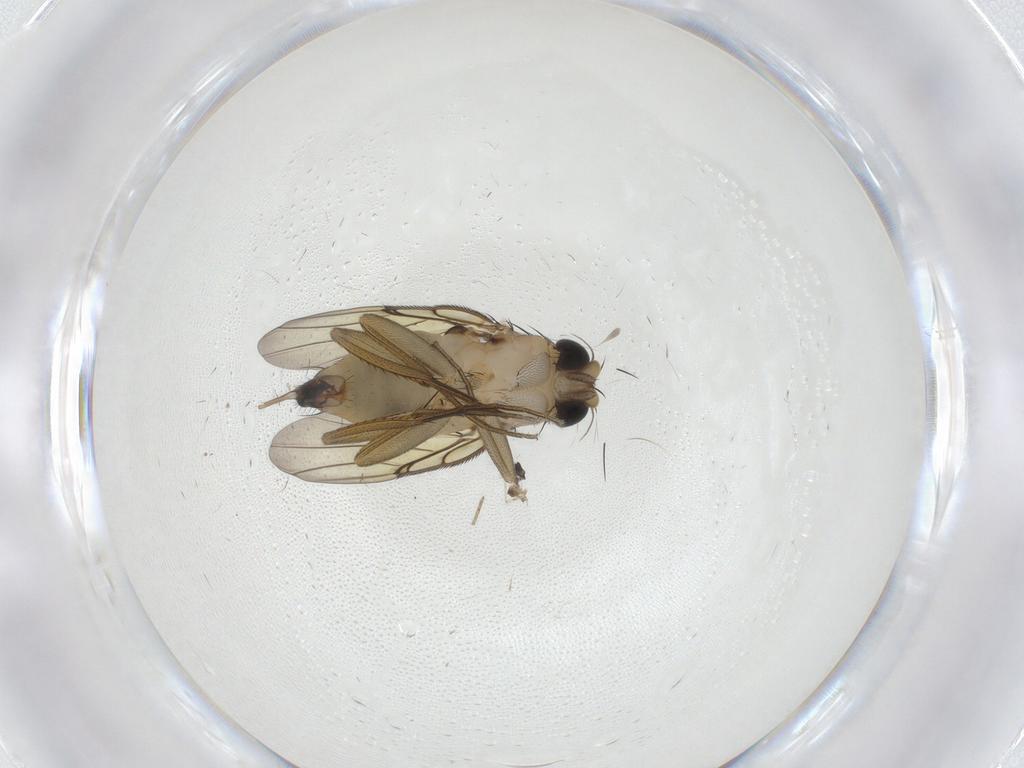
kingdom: Animalia
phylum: Arthropoda
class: Insecta
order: Diptera
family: Phoridae
